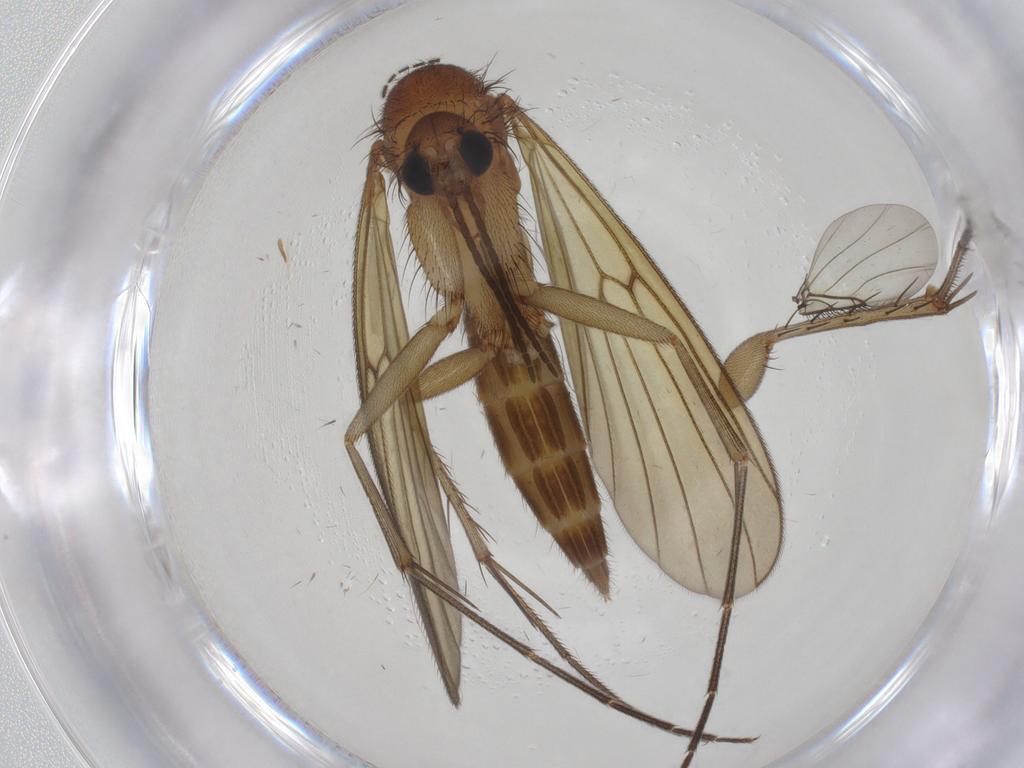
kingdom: Animalia
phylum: Arthropoda
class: Insecta
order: Diptera
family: Mycetophilidae
